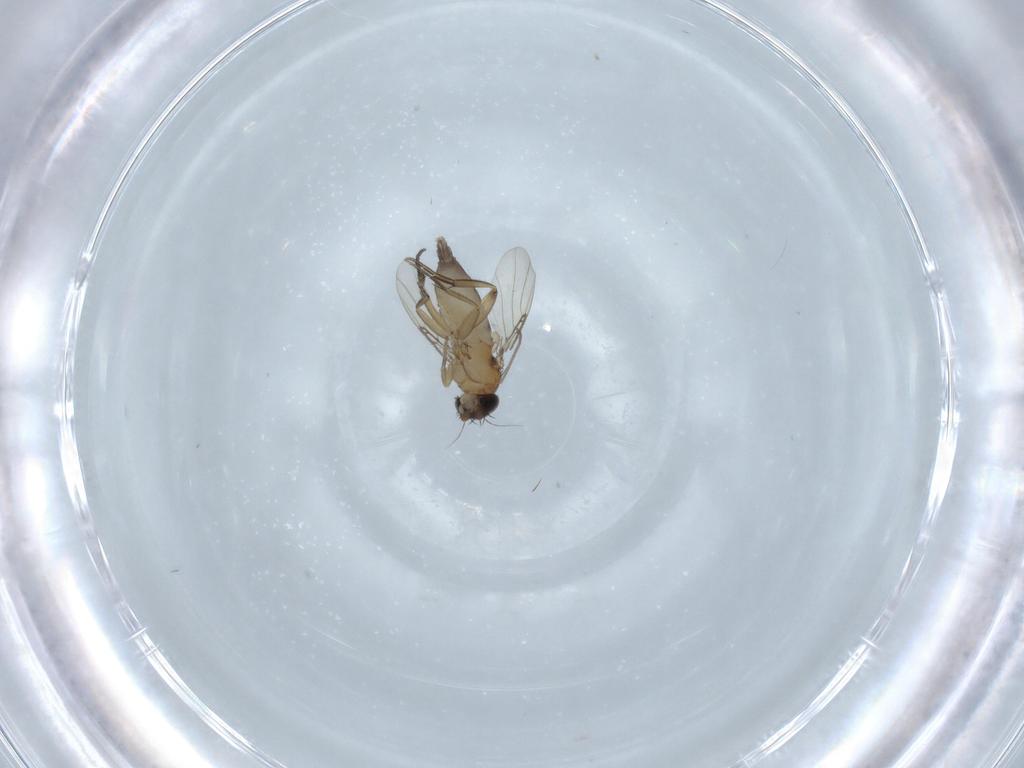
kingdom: Animalia
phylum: Arthropoda
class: Insecta
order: Diptera
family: Phoridae
